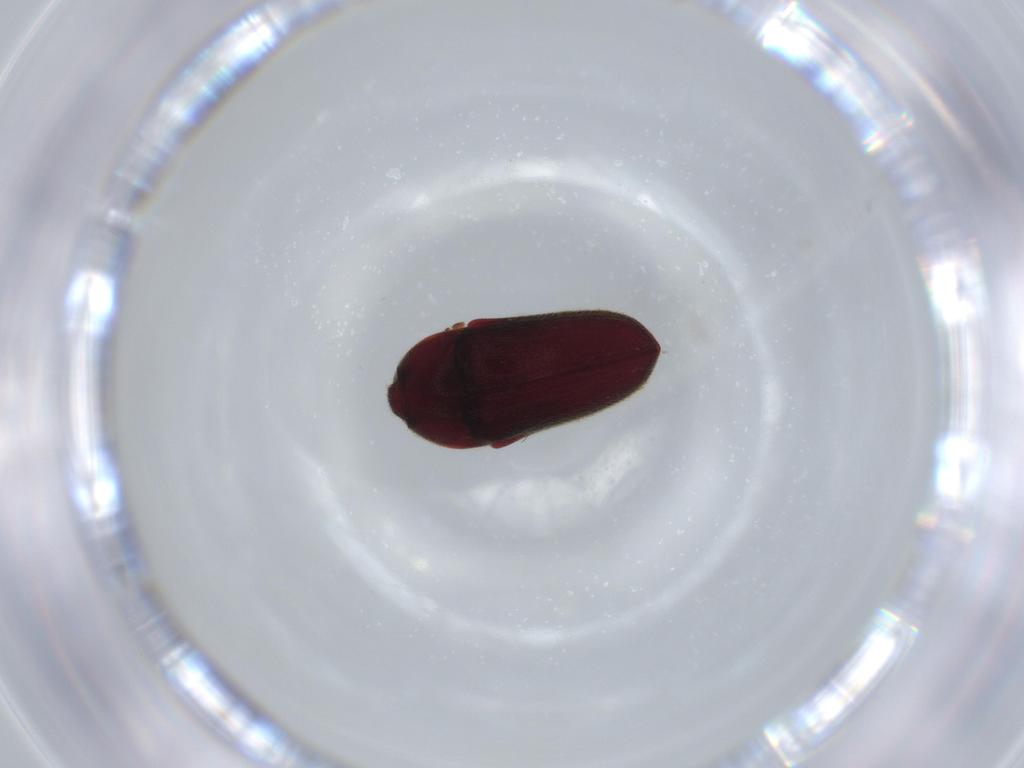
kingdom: Animalia
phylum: Arthropoda
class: Insecta
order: Coleoptera
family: Throscidae
